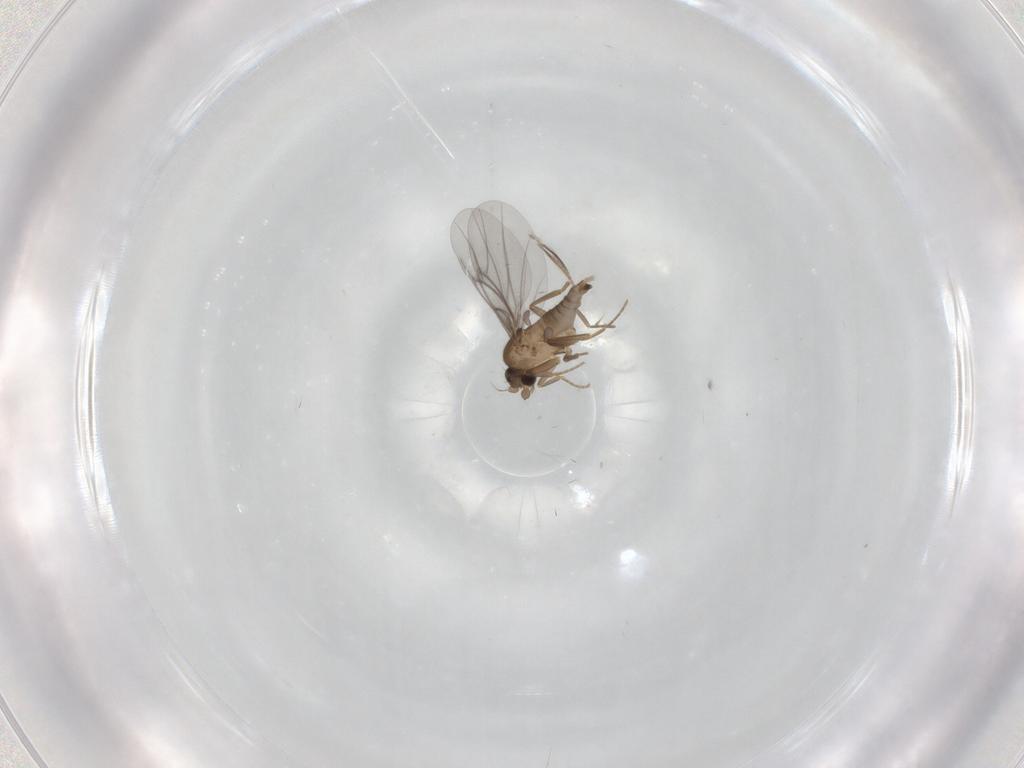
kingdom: Animalia
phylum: Arthropoda
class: Insecta
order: Diptera
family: Ceratopogonidae
